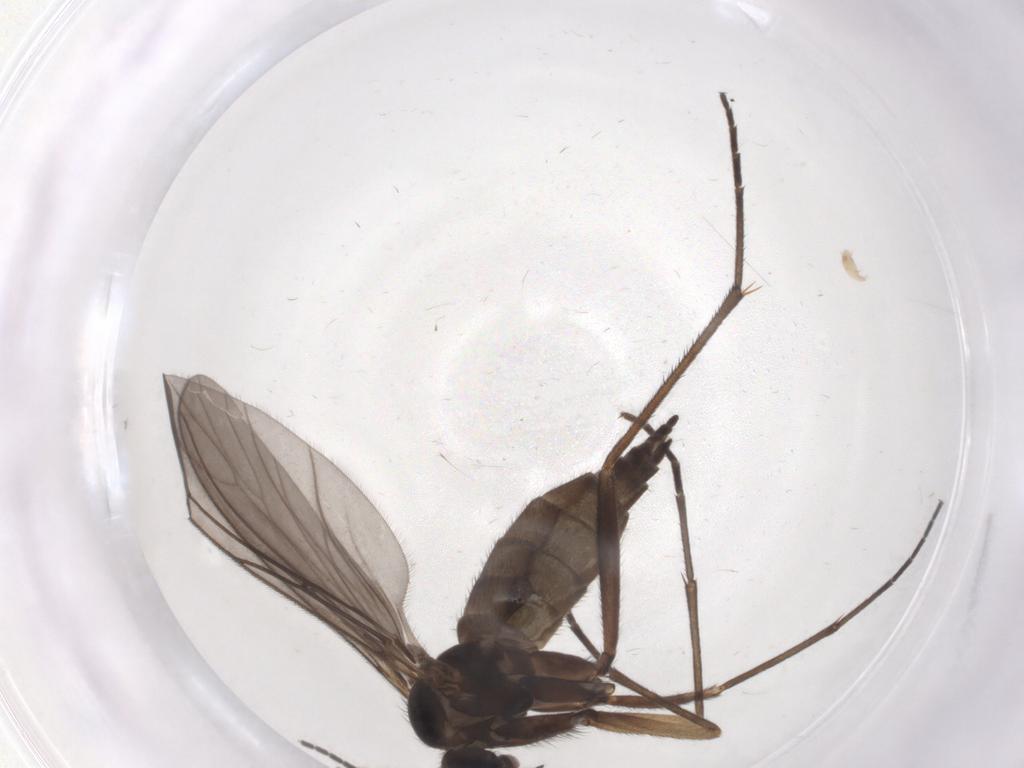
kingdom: Animalia
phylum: Arthropoda
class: Insecta
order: Diptera
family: Sciaridae
